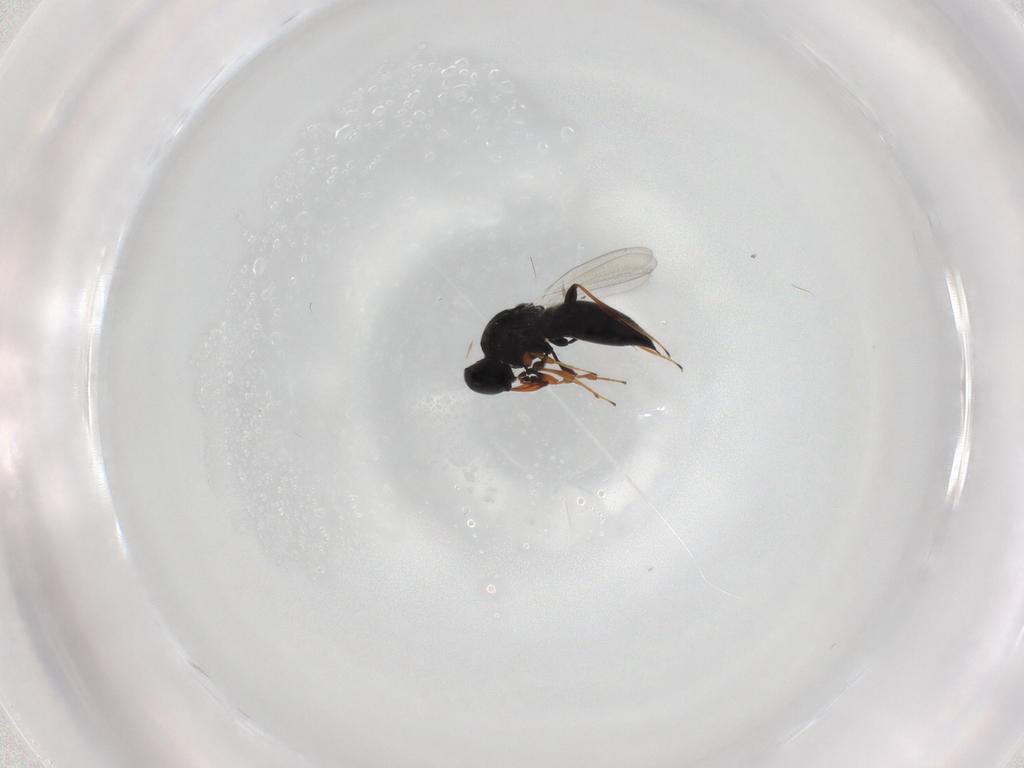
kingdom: Animalia
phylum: Arthropoda
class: Insecta
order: Hymenoptera
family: Platygastridae
